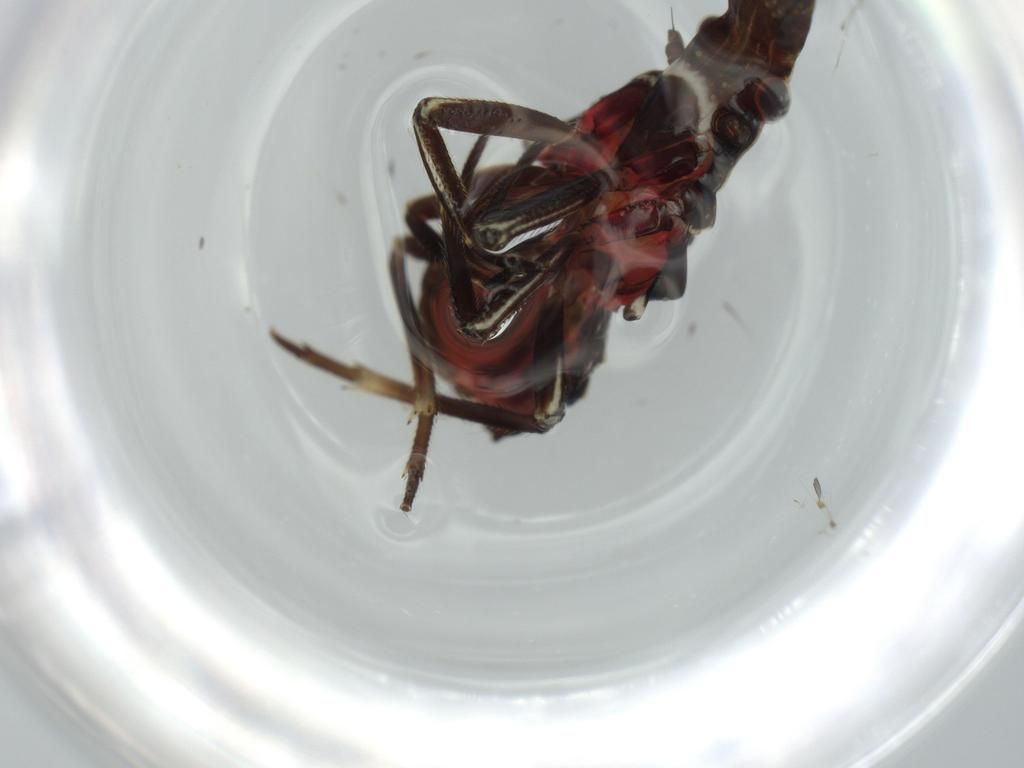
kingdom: Animalia
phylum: Arthropoda
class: Insecta
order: Hemiptera
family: Fulgoridae
